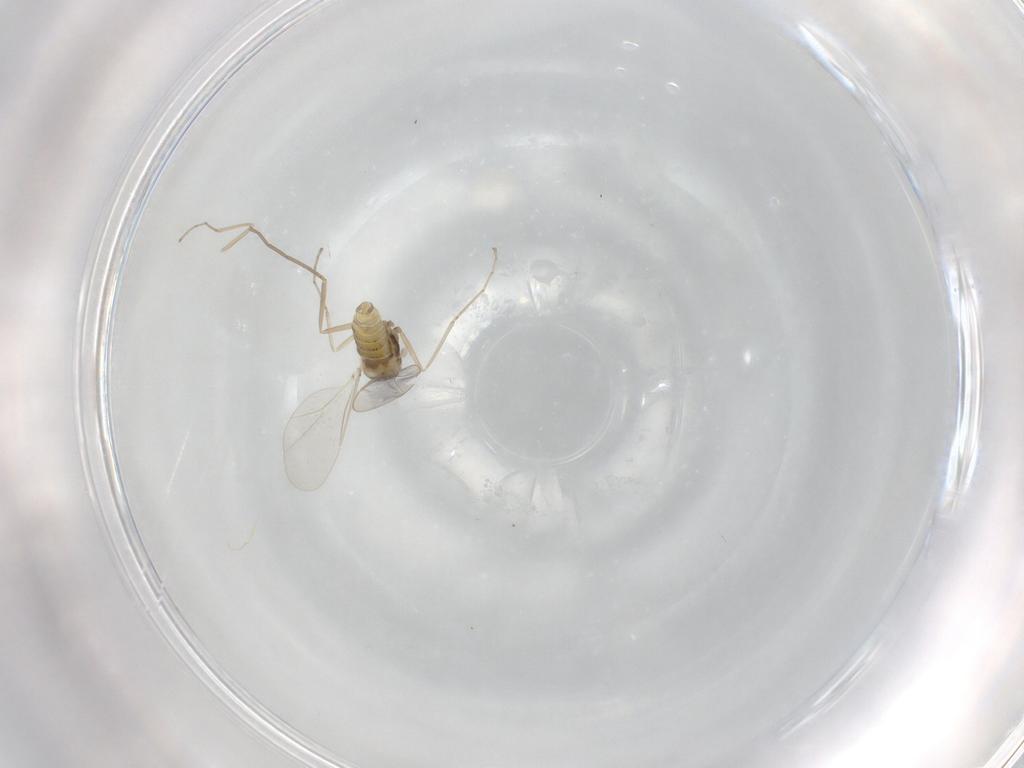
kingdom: Animalia
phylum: Arthropoda
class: Insecta
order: Diptera
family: Cecidomyiidae
